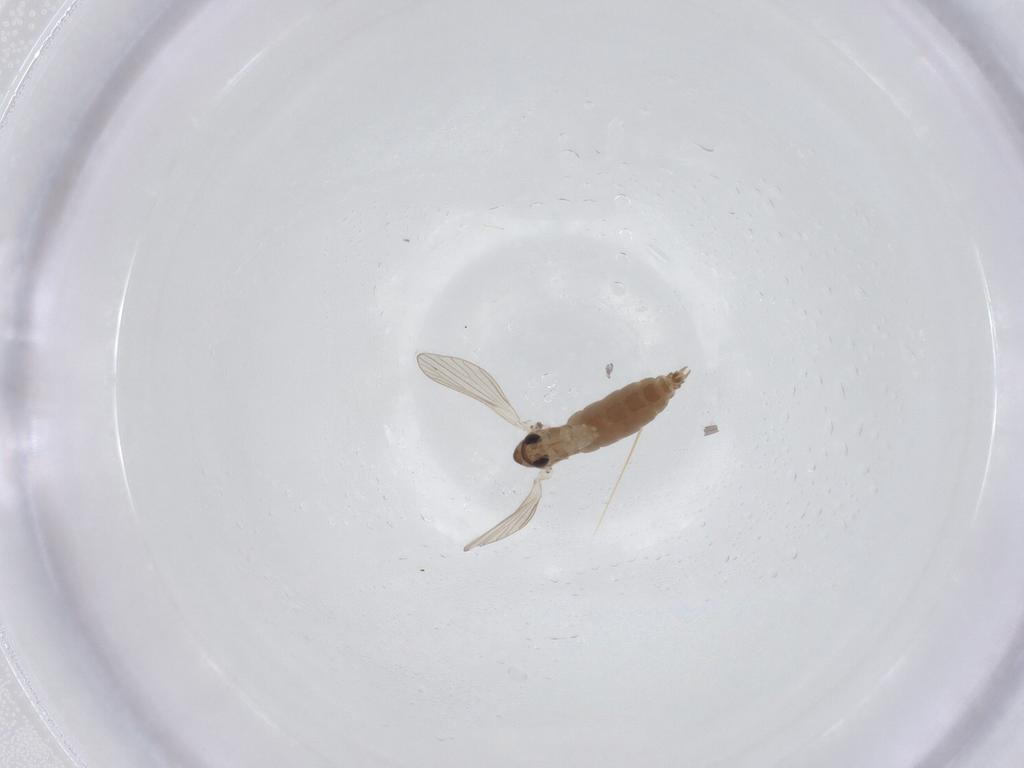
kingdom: Animalia
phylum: Arthropoda
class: Insecta
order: Diptera
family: Psychodidae
